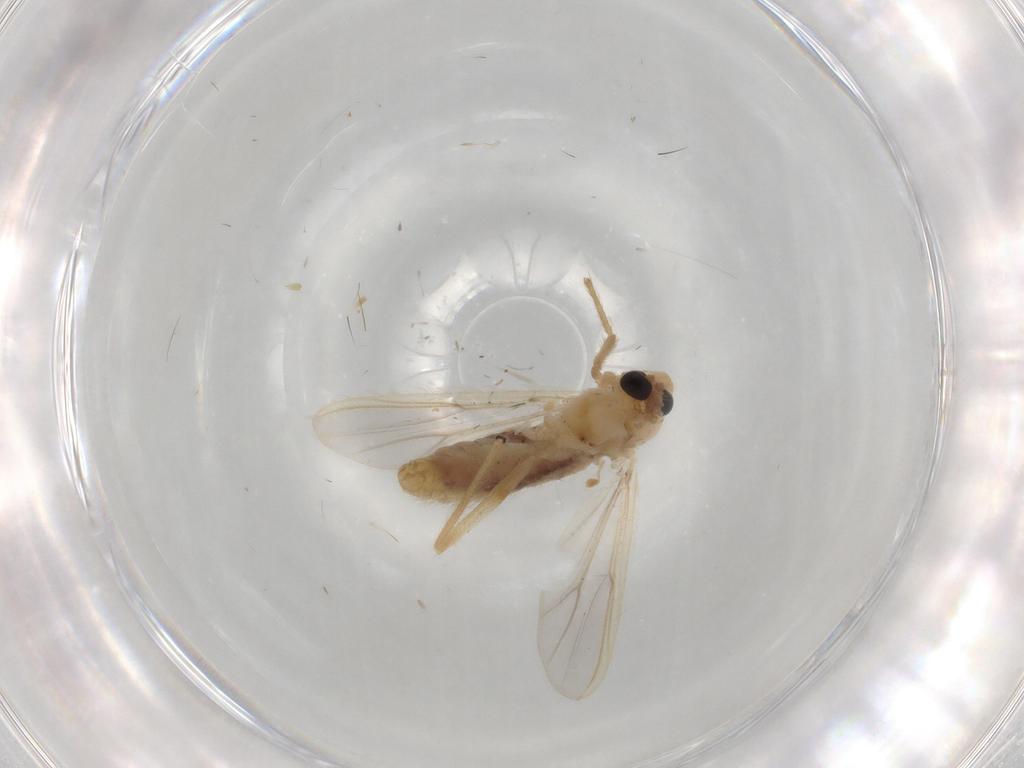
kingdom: Animalia
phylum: Arthropoda
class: Insecta
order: Diptera
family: Chironomidae
